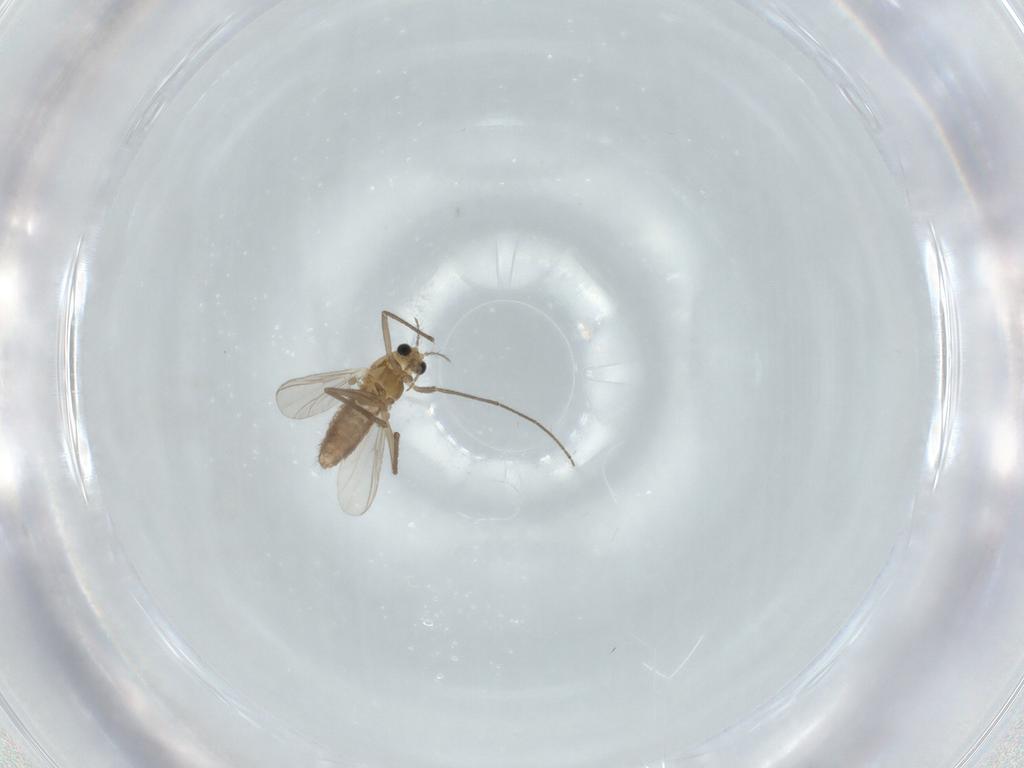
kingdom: Animalia
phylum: Arthropoda
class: Insecta
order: Diptera
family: Chironomidae
